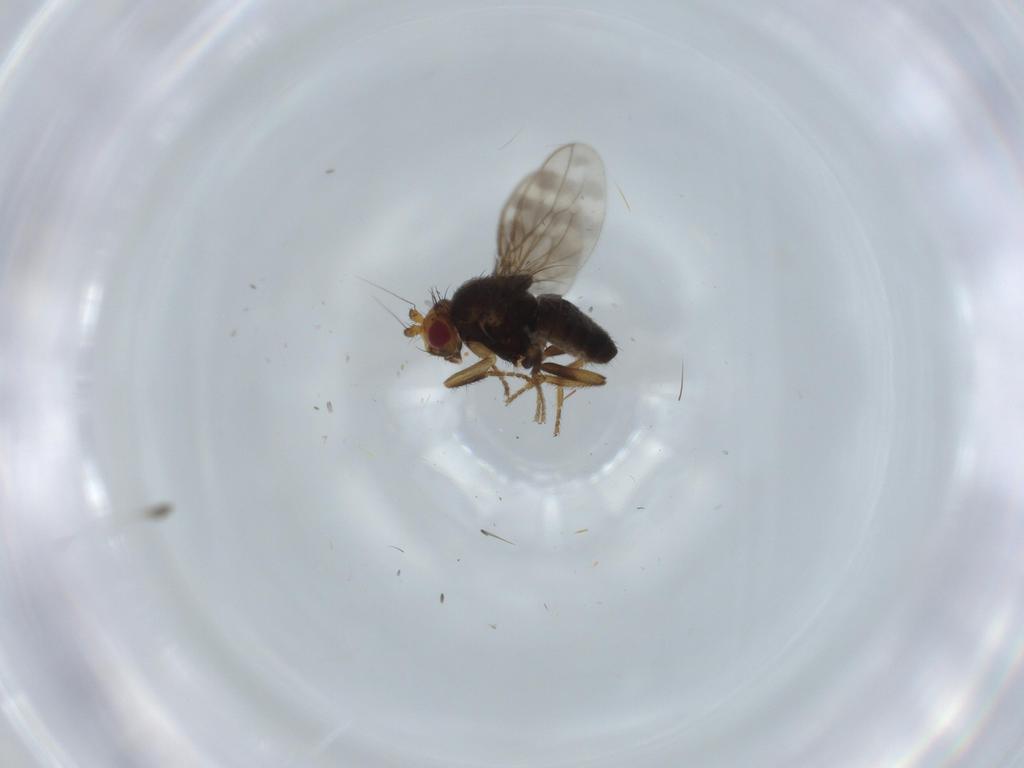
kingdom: Animalia
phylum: Arthropoda
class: Insecta
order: Diptera
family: Sphaeroceridae
